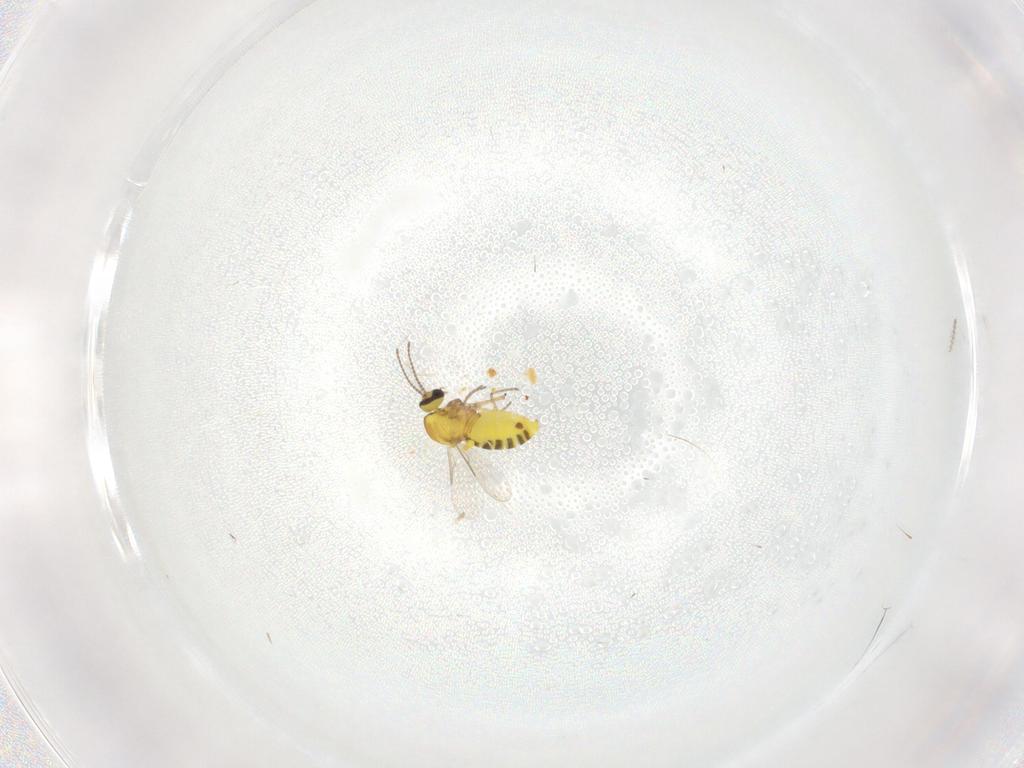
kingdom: Animalia
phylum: Arthropoda
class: Insecta
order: Diptera
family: Ceratopogonidae
